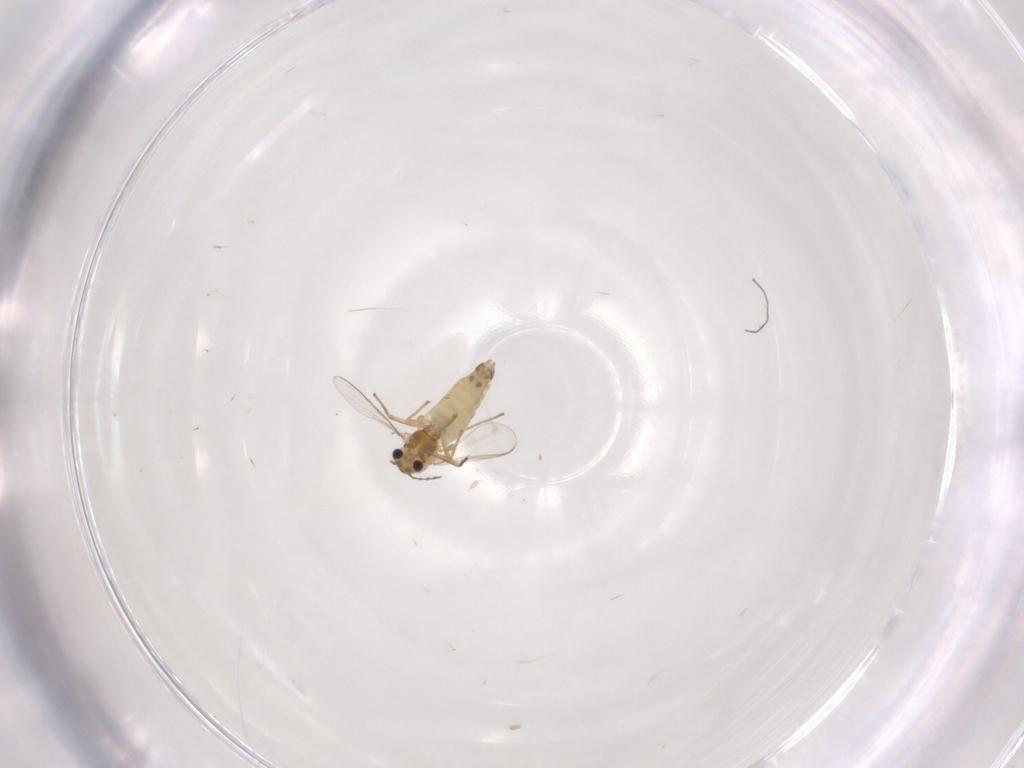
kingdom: Animalia
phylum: Arthropoda
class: Insecta
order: Diptera
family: Chironomidae
